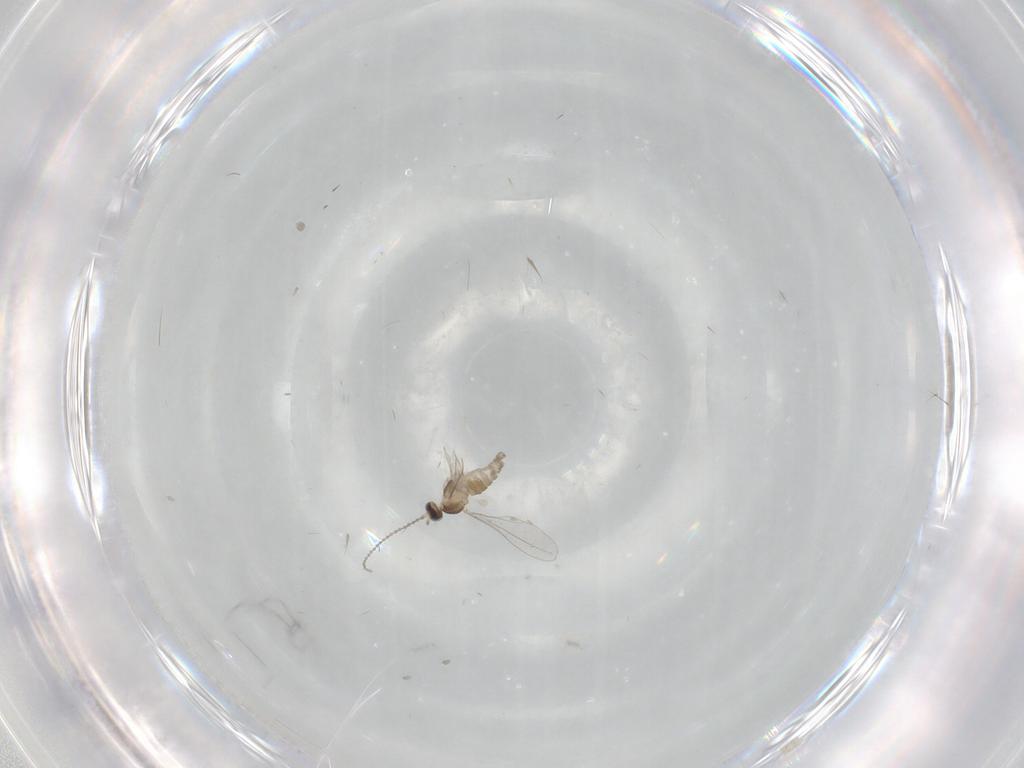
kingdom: Animalia
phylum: Arthropoda
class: Insecta
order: Diptera
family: Chironomidae
